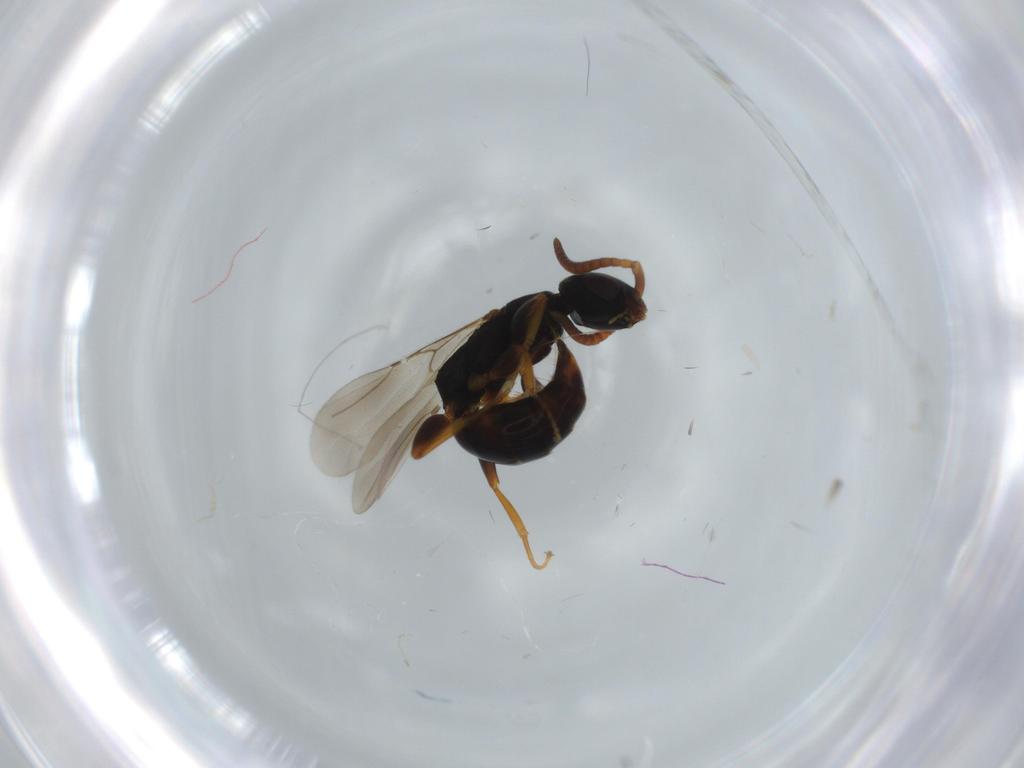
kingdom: Animalia
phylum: Arthropoda
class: Insecta
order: Hymenoptera
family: Bethylidae
